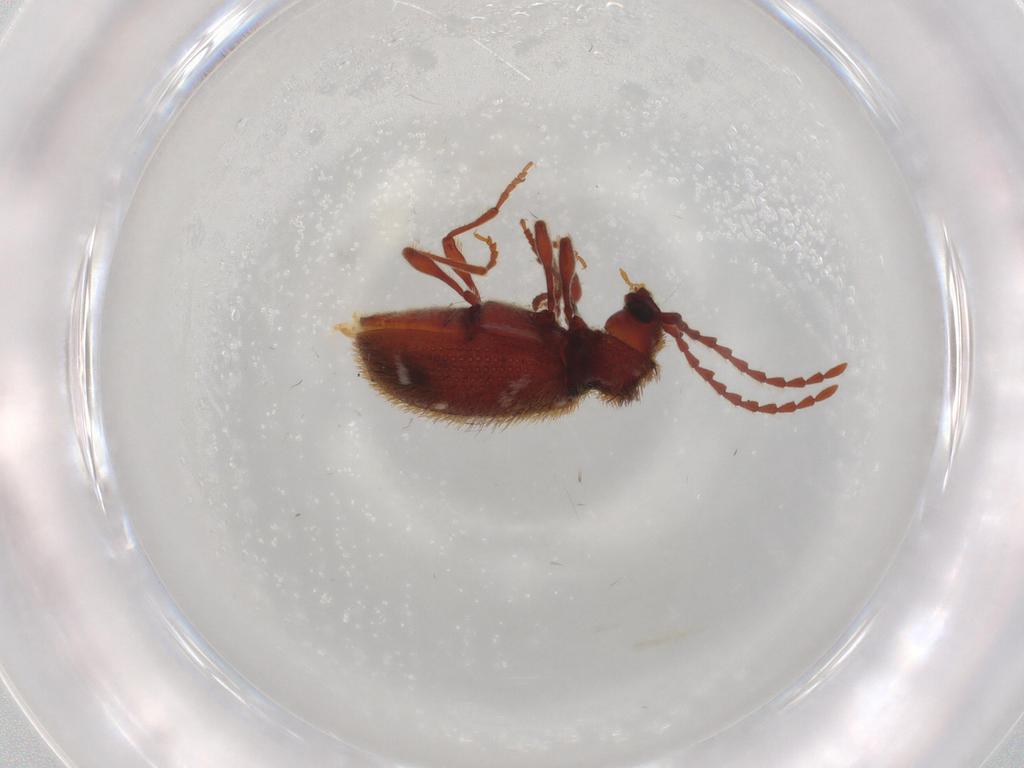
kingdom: Animalia
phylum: Arthropoda
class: Insecta
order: Coleoptera
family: Ptinidae
